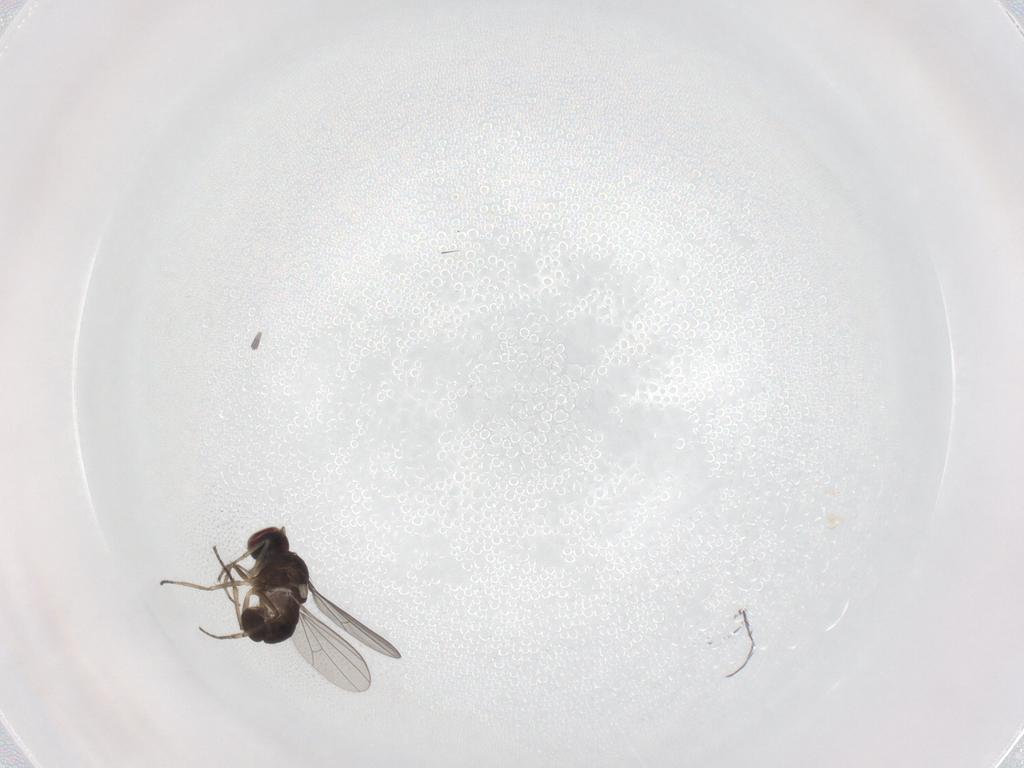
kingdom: Animalia
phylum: Arthropoda
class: Insecta
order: Diptera
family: Dolichopodidae
